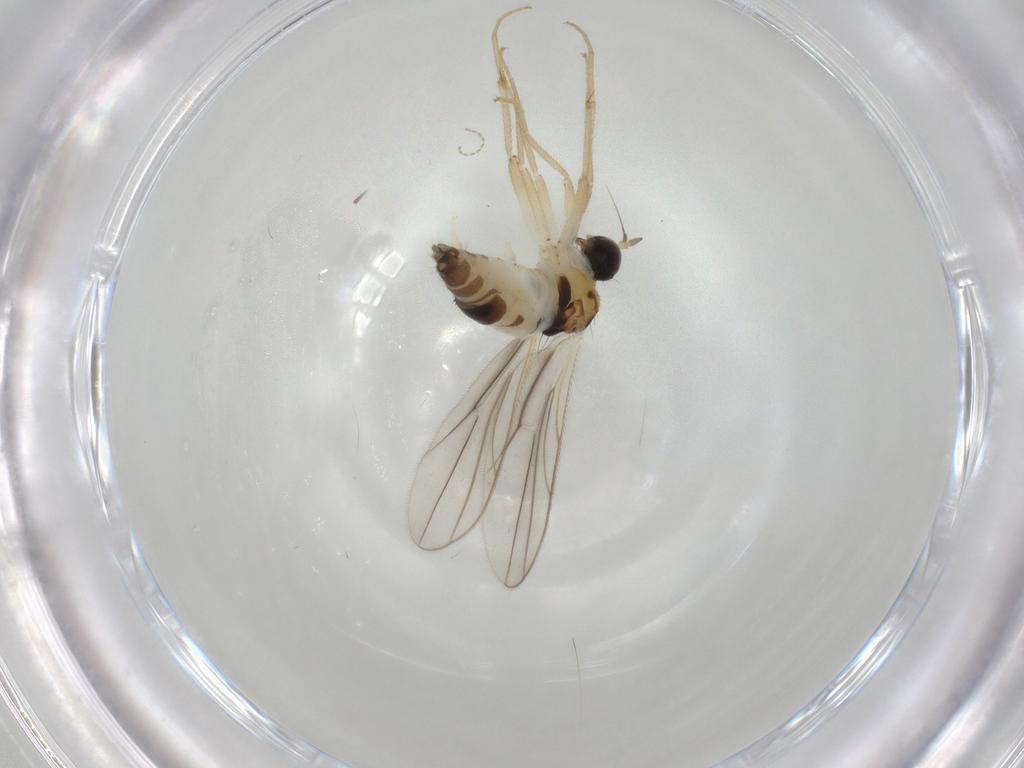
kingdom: Animalia
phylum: Arthropoda
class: Insecta
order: Diptera
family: Hybotidae
